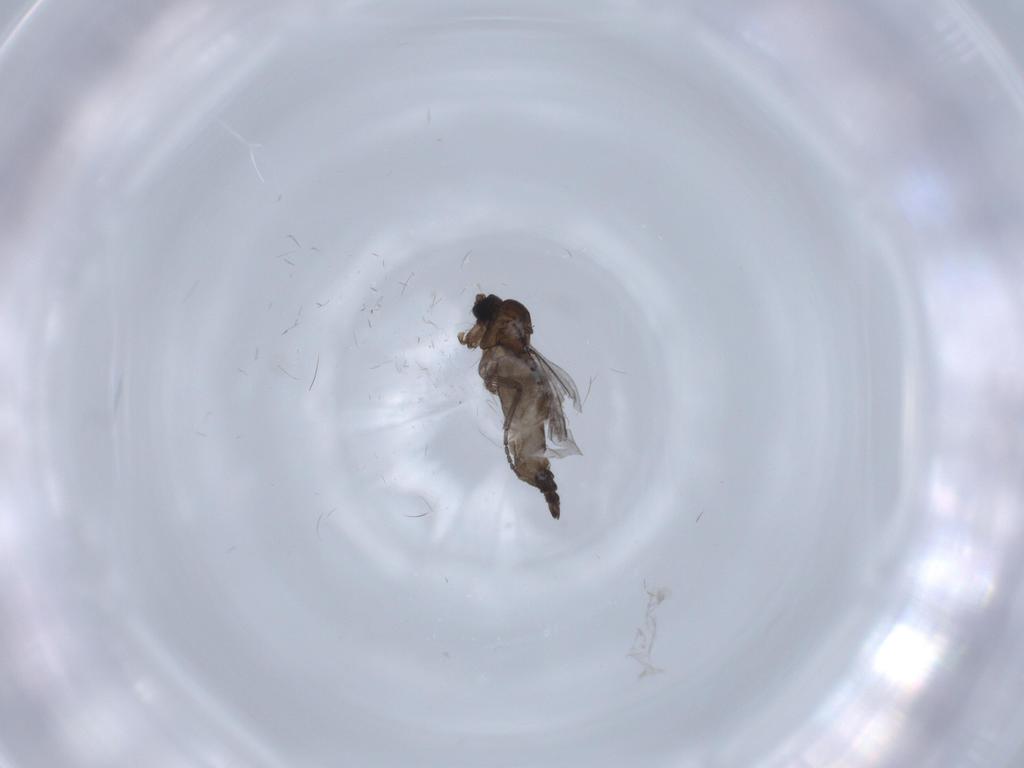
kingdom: Animalia
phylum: Arthropoda
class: Insecta
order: Diptera
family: Sciaridae
